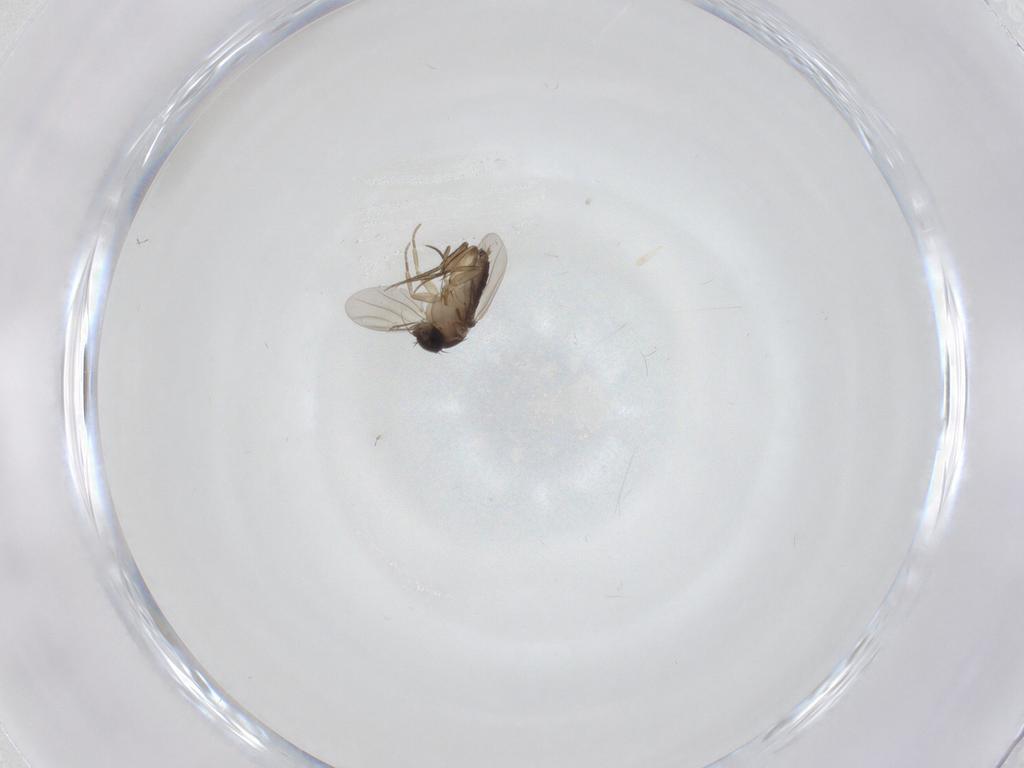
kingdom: Animalia
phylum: Arthropoda
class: Insecta
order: Diptera
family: Phoridae
